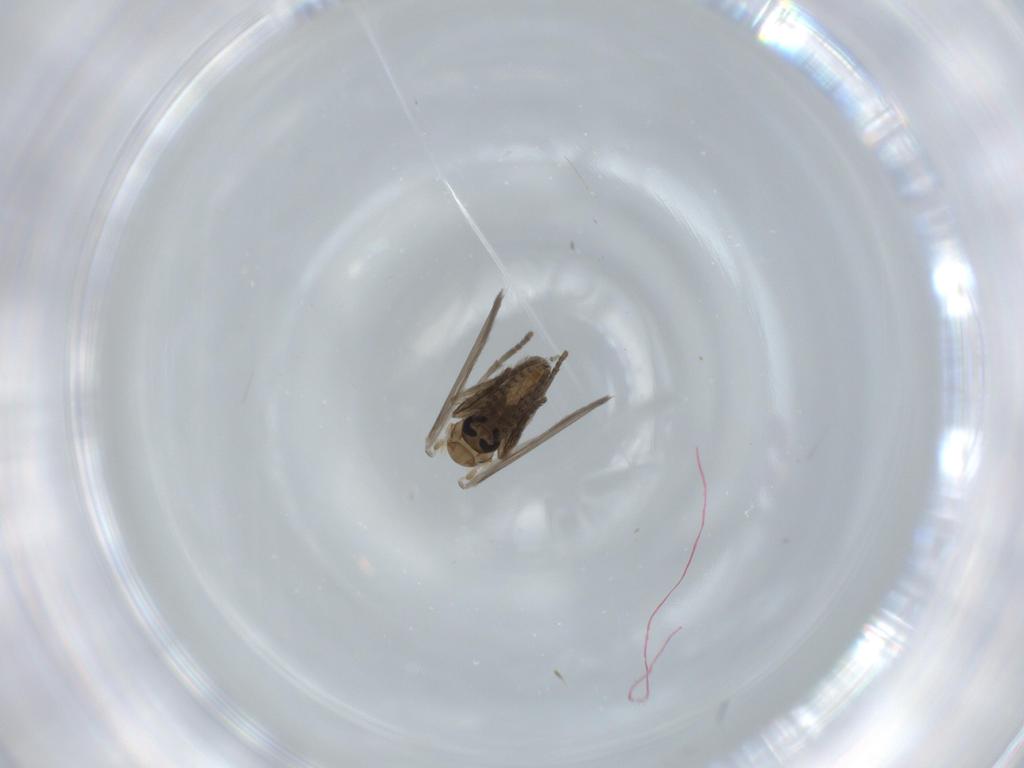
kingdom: Animalia
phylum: Arthropoda
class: Insecta
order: Diptera
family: Psychodidae
